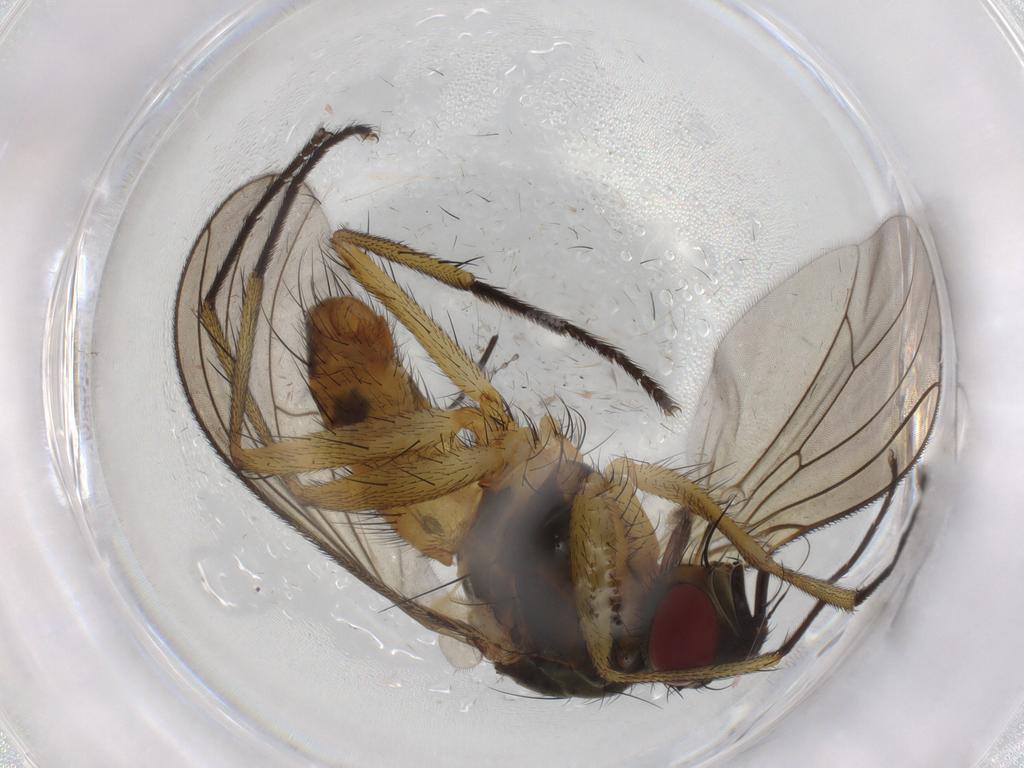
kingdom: Animalia
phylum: Arthropoda
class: Insecta
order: Diptera
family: Muscidae
